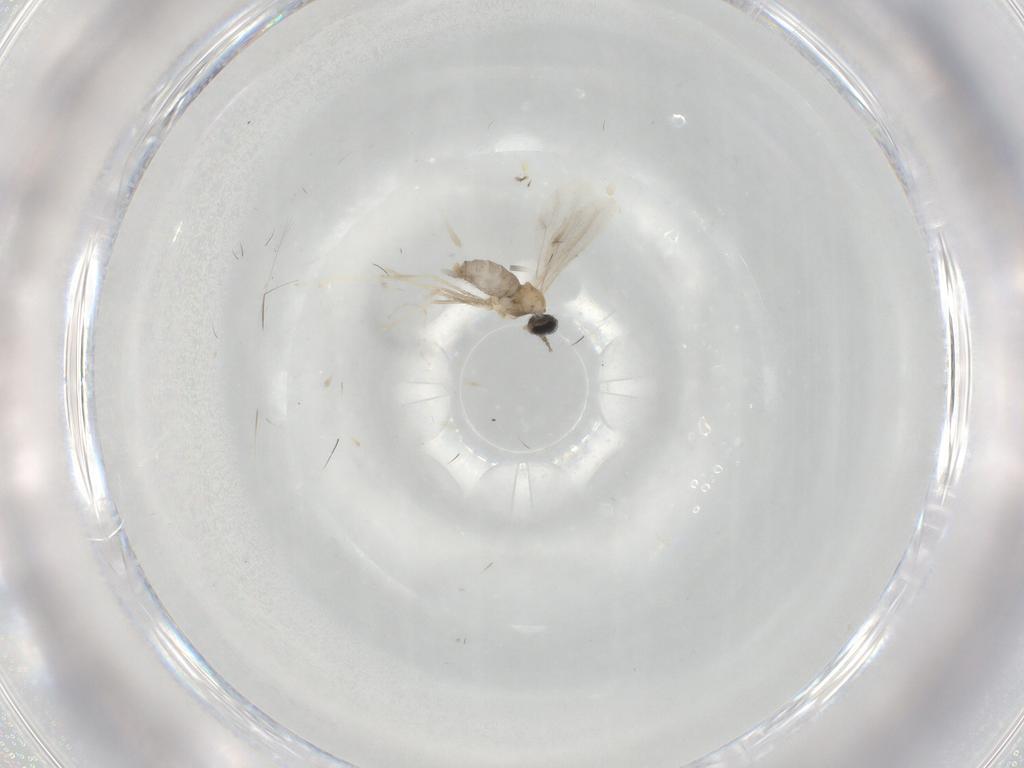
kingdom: Animalia
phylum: Arthropoda
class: Insecta
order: Diptera
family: Cecidomyiidae
